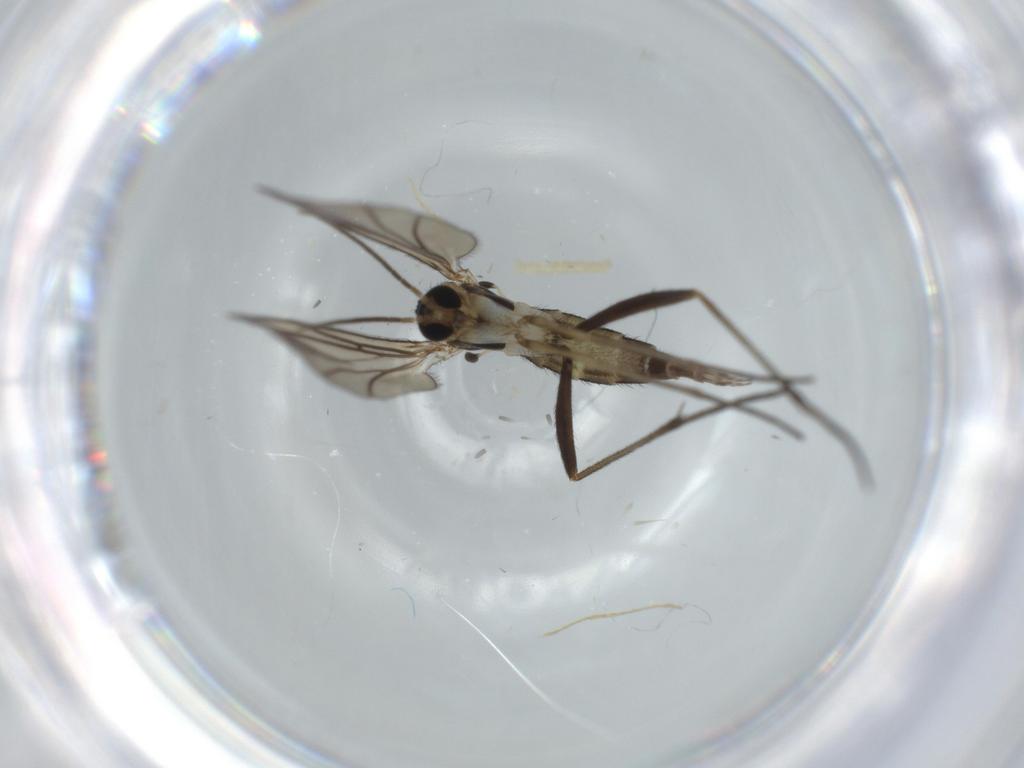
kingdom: Animalia
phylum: Arthropoda
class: Insecta
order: Diptera
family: Sciaridae
